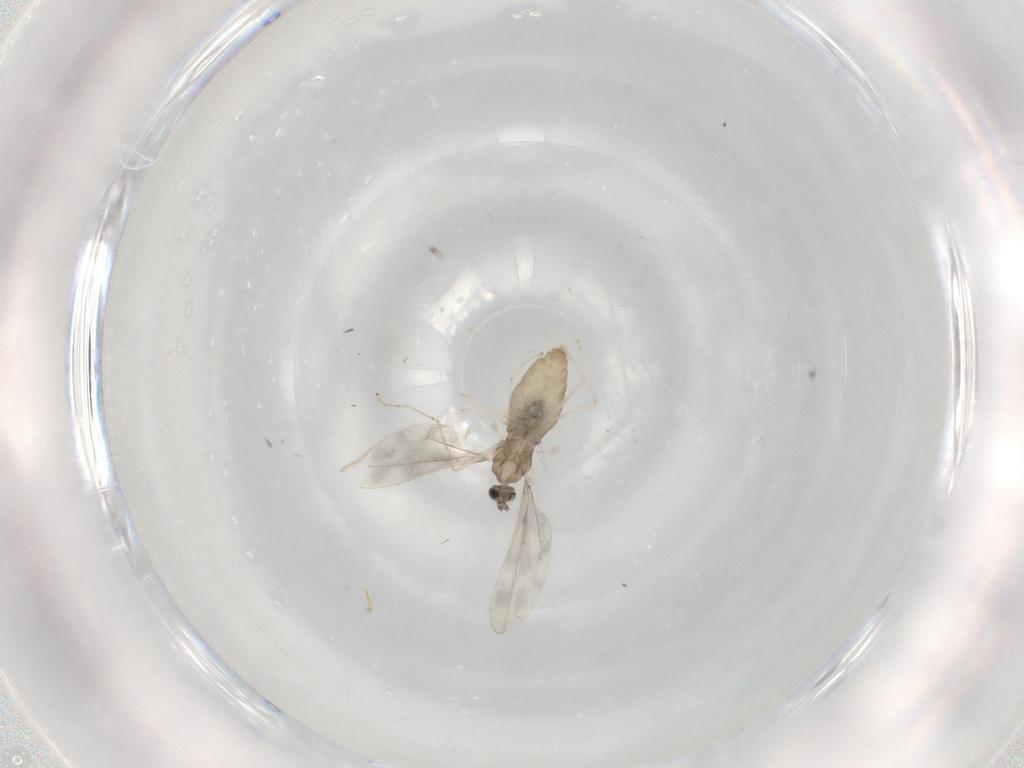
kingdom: Animalia
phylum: Arthropoda
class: Insecta
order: Diptera
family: Cecidomyiidae
